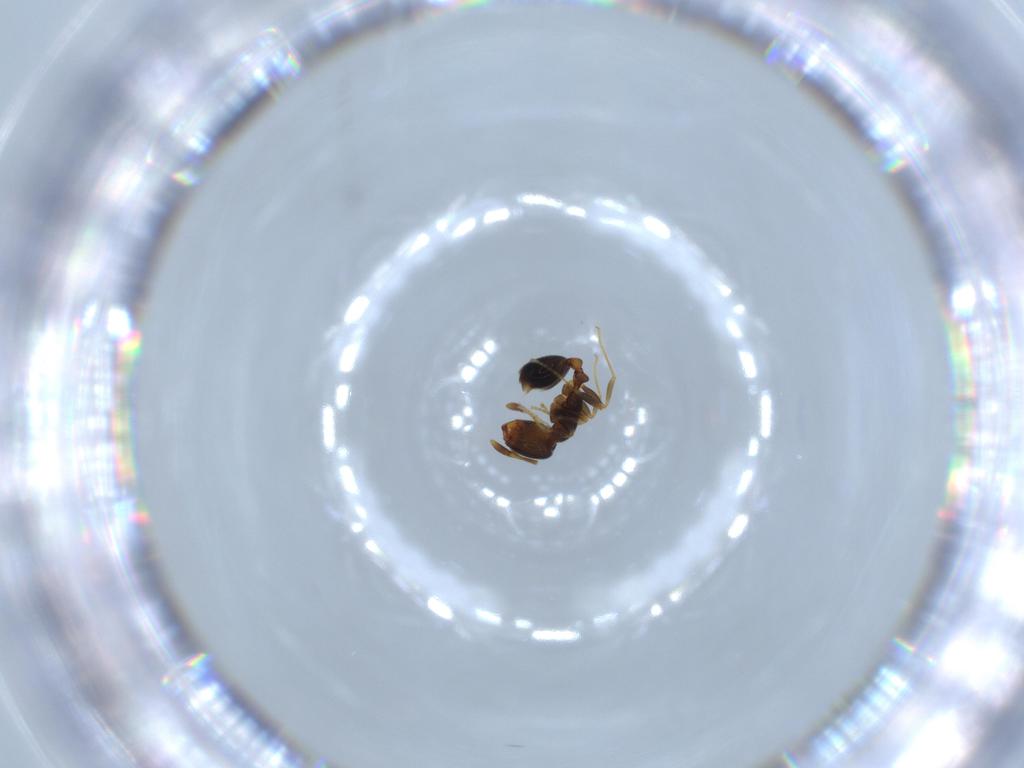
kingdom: Animalia
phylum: Arthropoda
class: Insecta
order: Hymenoptera
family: Formicidae
